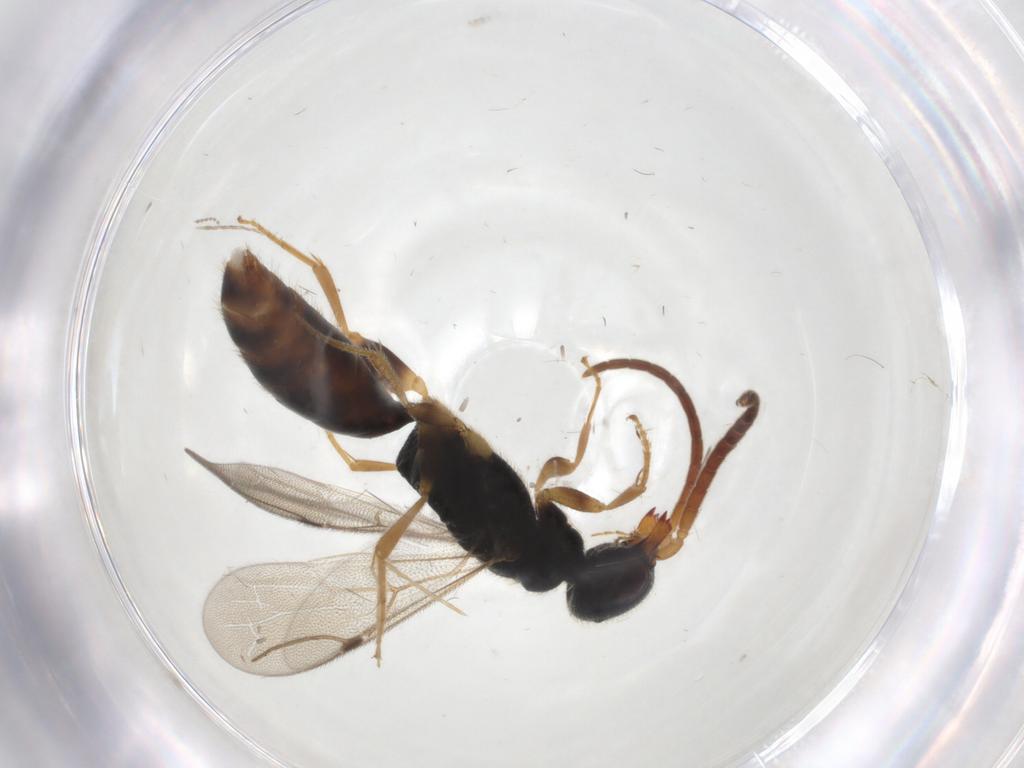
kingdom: Animalia
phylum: Arthropoda
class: Insecta
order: Hymenoptera
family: Bethylidae
